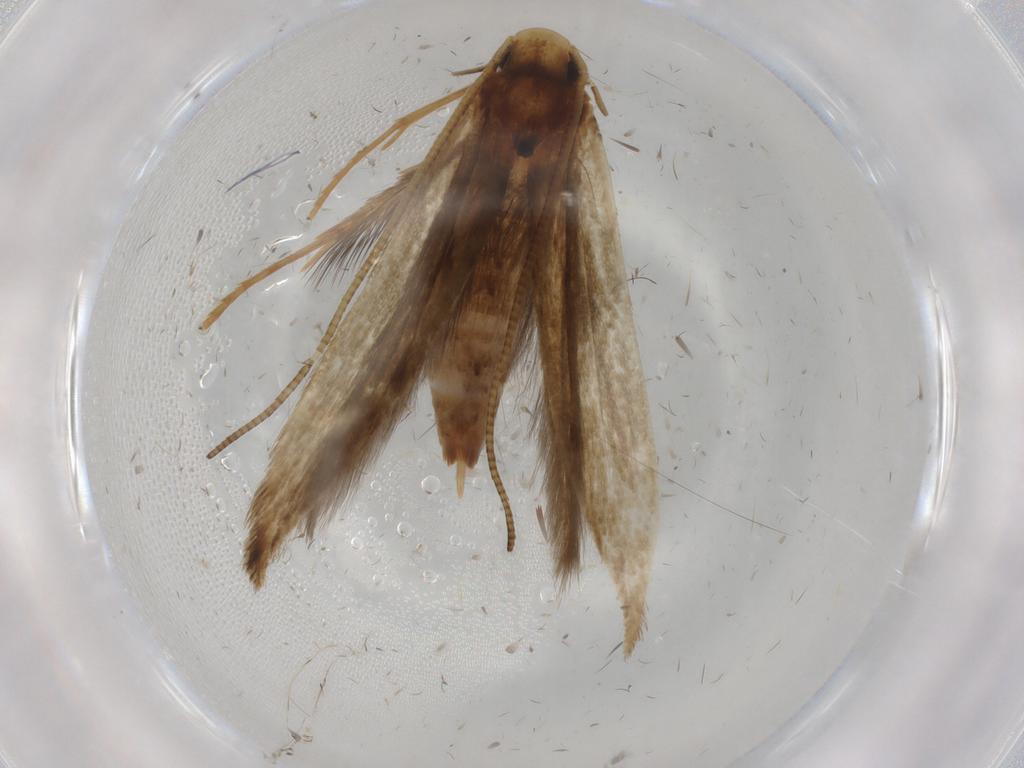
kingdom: Animalia
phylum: Arthropoda
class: Insecta
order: Lepidoptera
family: Tineidae
